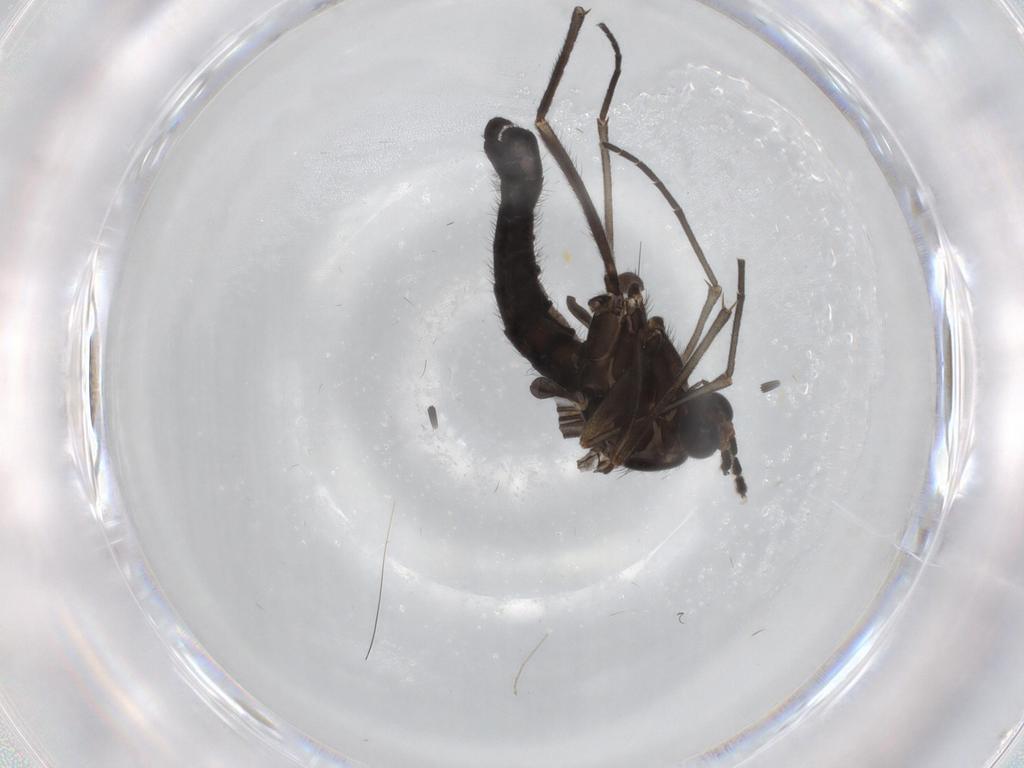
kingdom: Animalia
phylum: Arthropoda
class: Insecta
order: Diptera
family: Sciaridae
